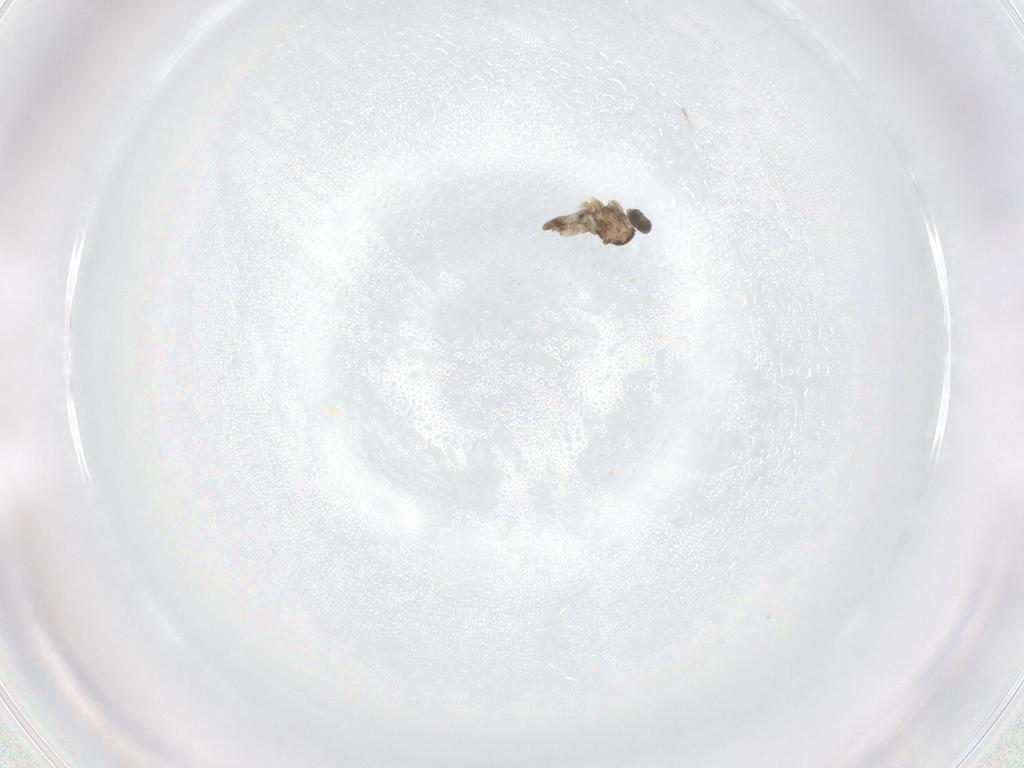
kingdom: Animalia
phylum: Arthropoda
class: Insecta
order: Diptera
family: Cecidomyiidae
